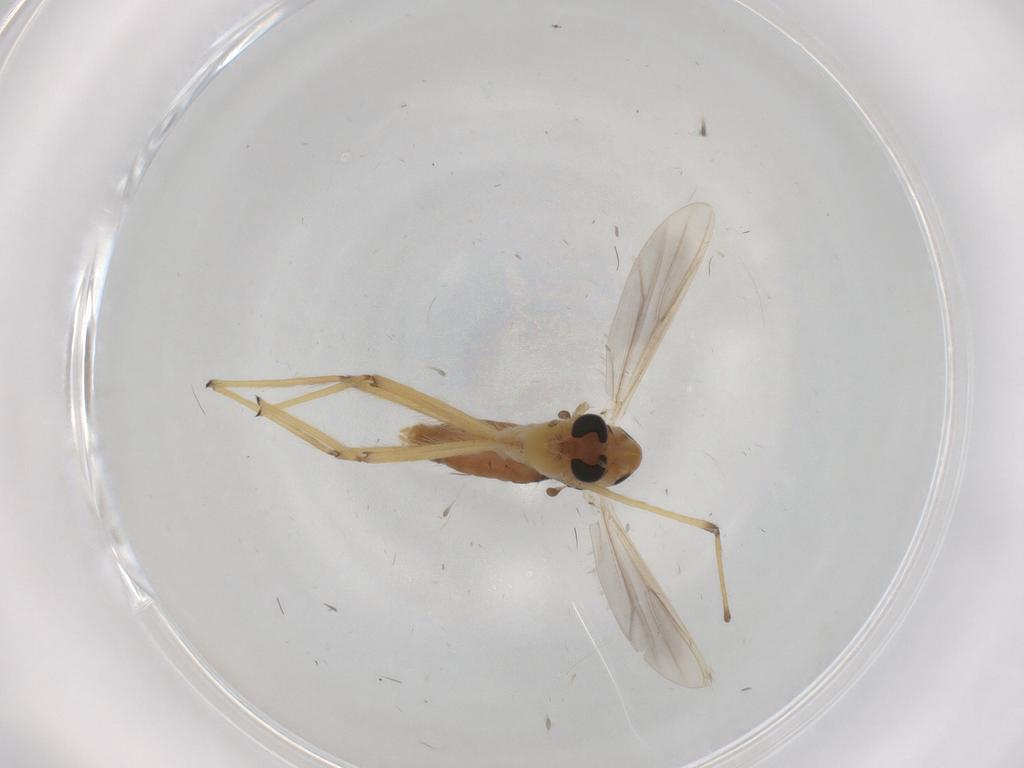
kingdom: Animalia
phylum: Arthropoda
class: Insecta
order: Diptera
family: Chironomidae
